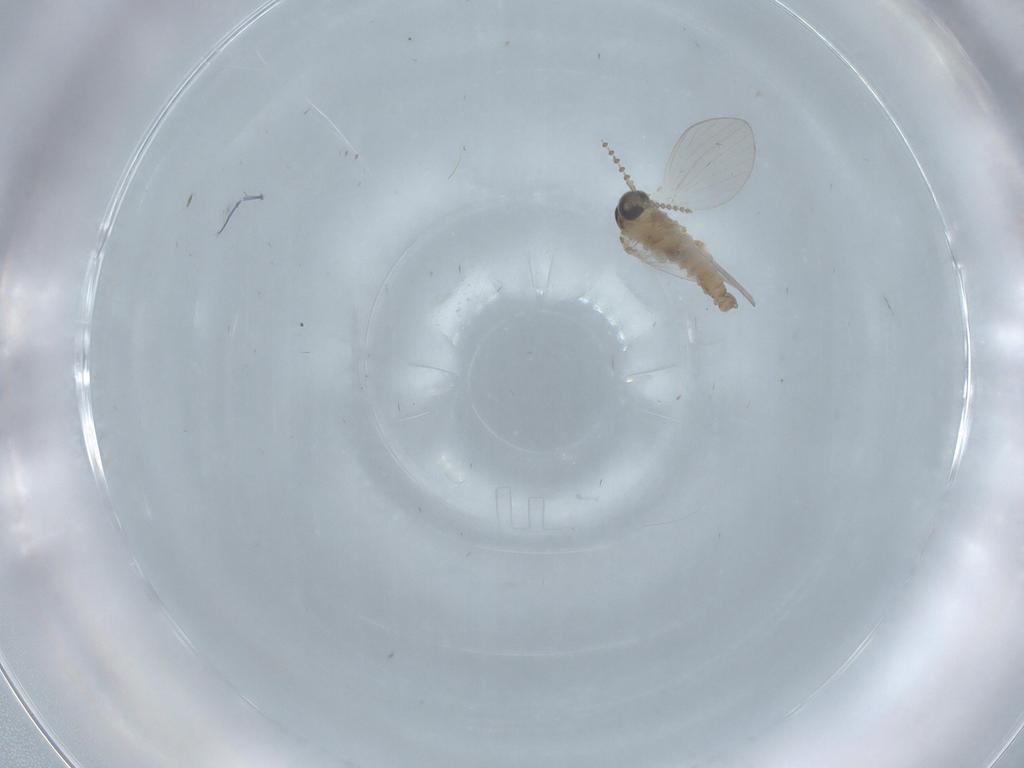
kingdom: Animalia
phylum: Arthropoda
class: Insecta
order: Diptera
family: Psychodidae
